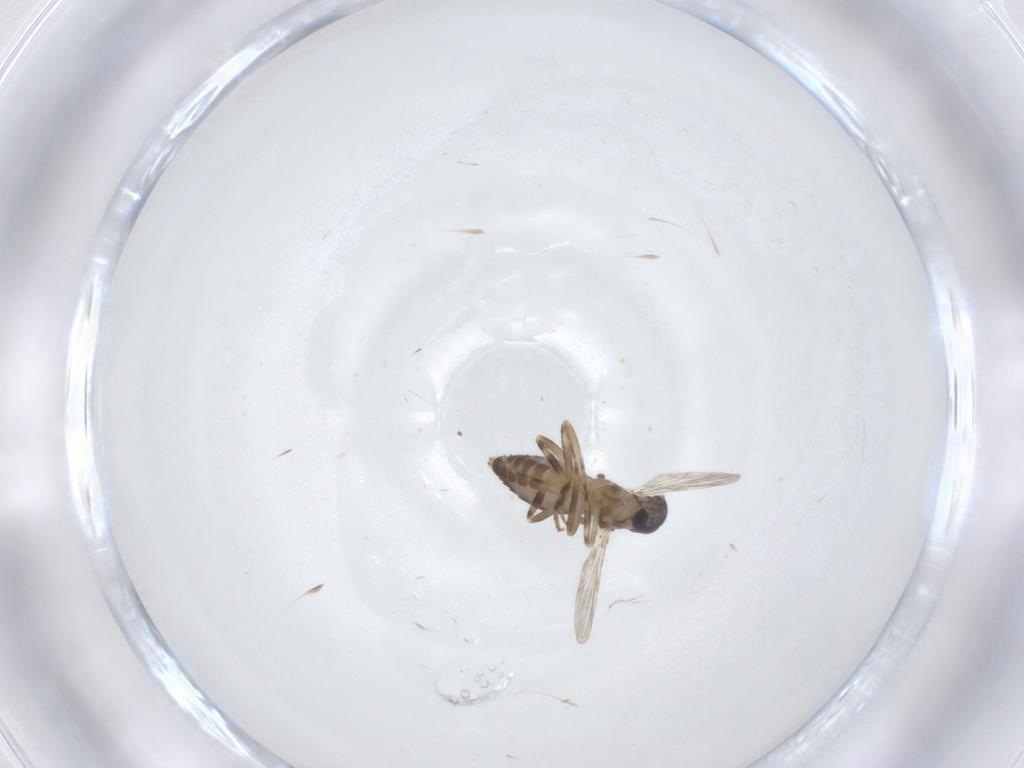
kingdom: Animalia
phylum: Arthropoda
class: Insecta
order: Diptera
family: Ceratopogonidae
